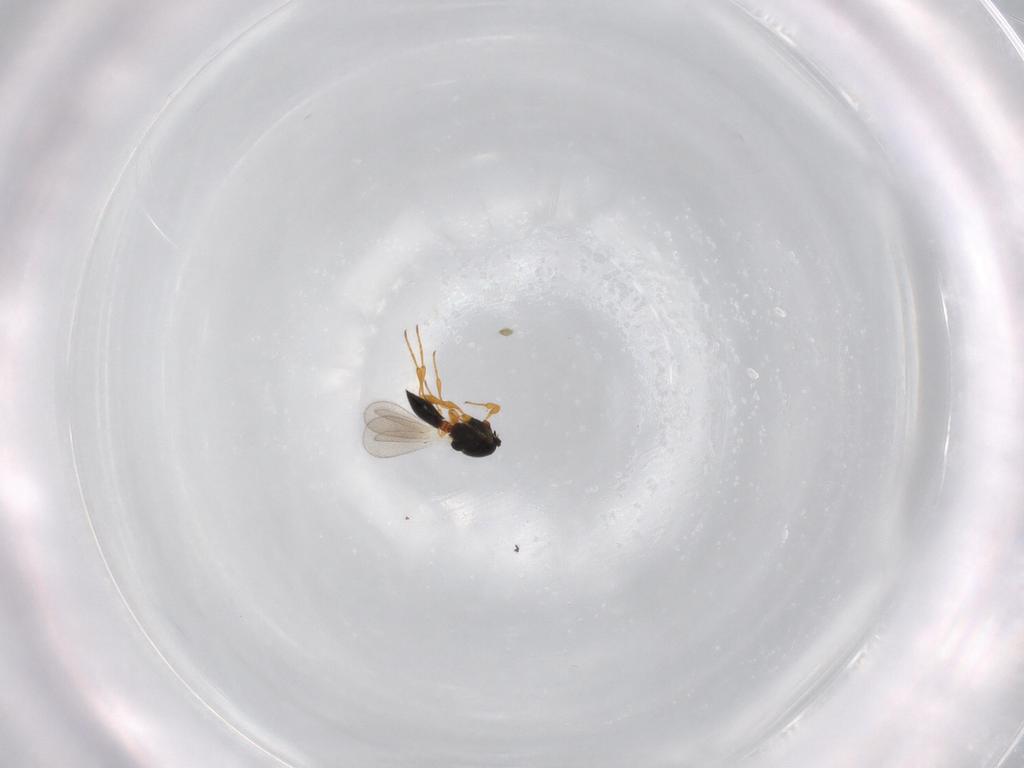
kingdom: Animalia
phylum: Arthropoda
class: Insecta
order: Hymenoptera
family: Platygastridae
